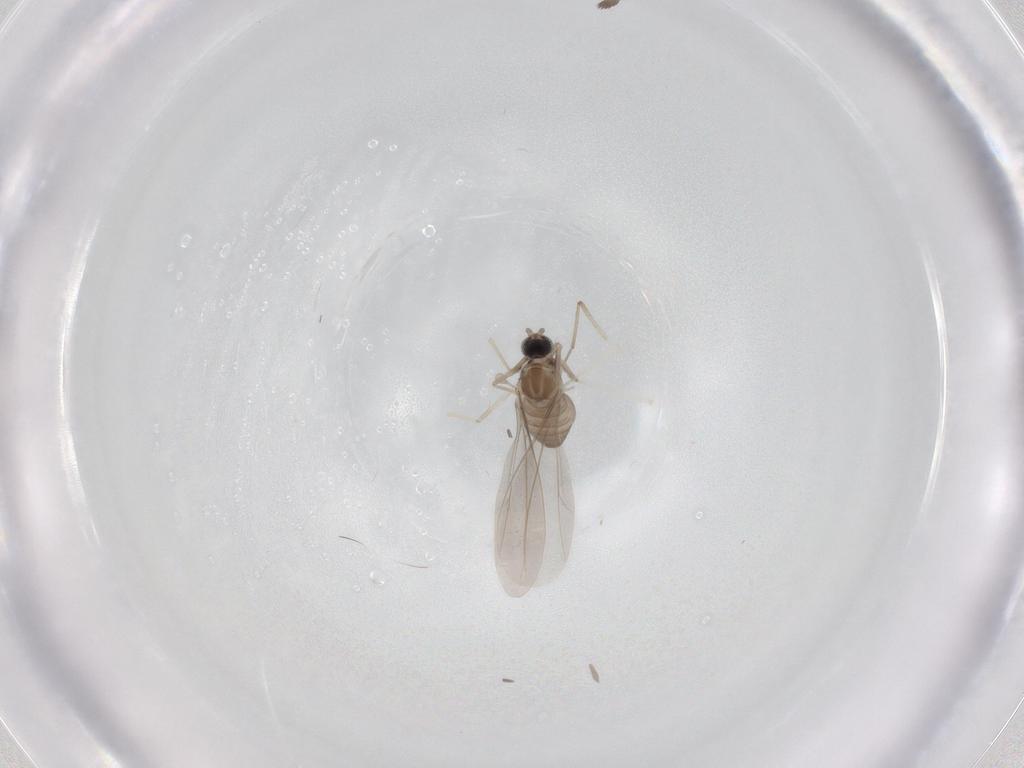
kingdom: Animalia
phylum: Arthropoda
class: Insecta
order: Diptera
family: Cecidomyiidae
